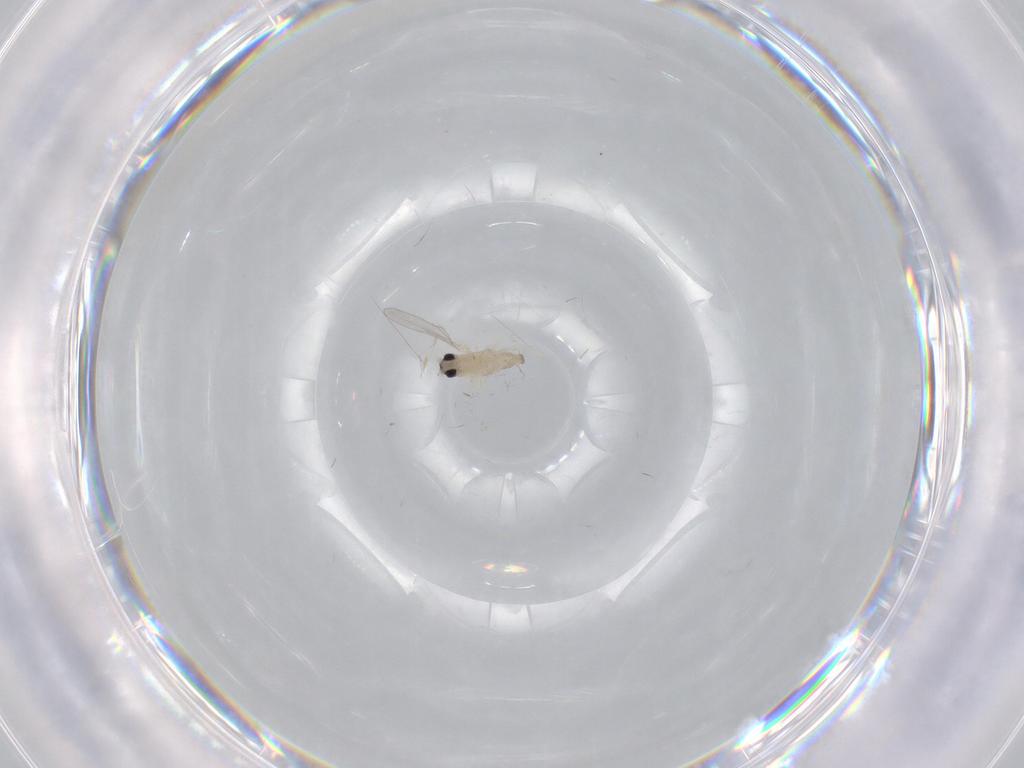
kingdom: Animalia
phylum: Arthropoda
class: Insecta
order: Diptera
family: Cecidomyiidae
